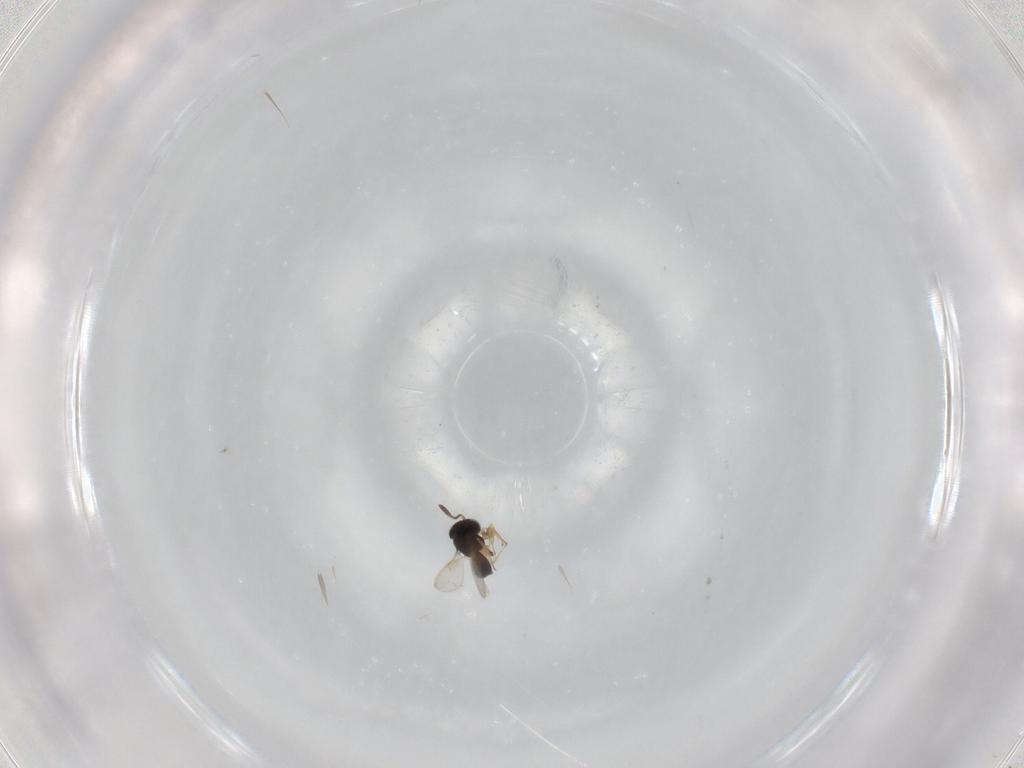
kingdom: Animalia
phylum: Arthropoda
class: Insecta
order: Hymenoptera
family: Scelionidae
